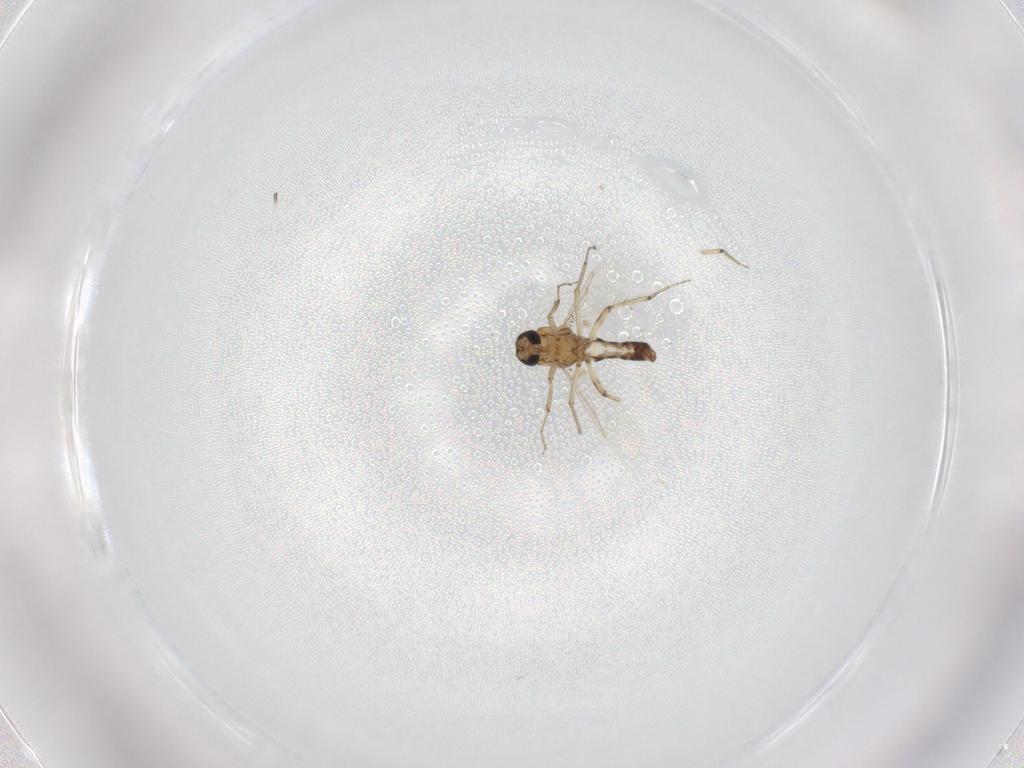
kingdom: Animalia
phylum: Arthropoda
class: Insecta
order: Diptera
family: Ceratopogonidae
